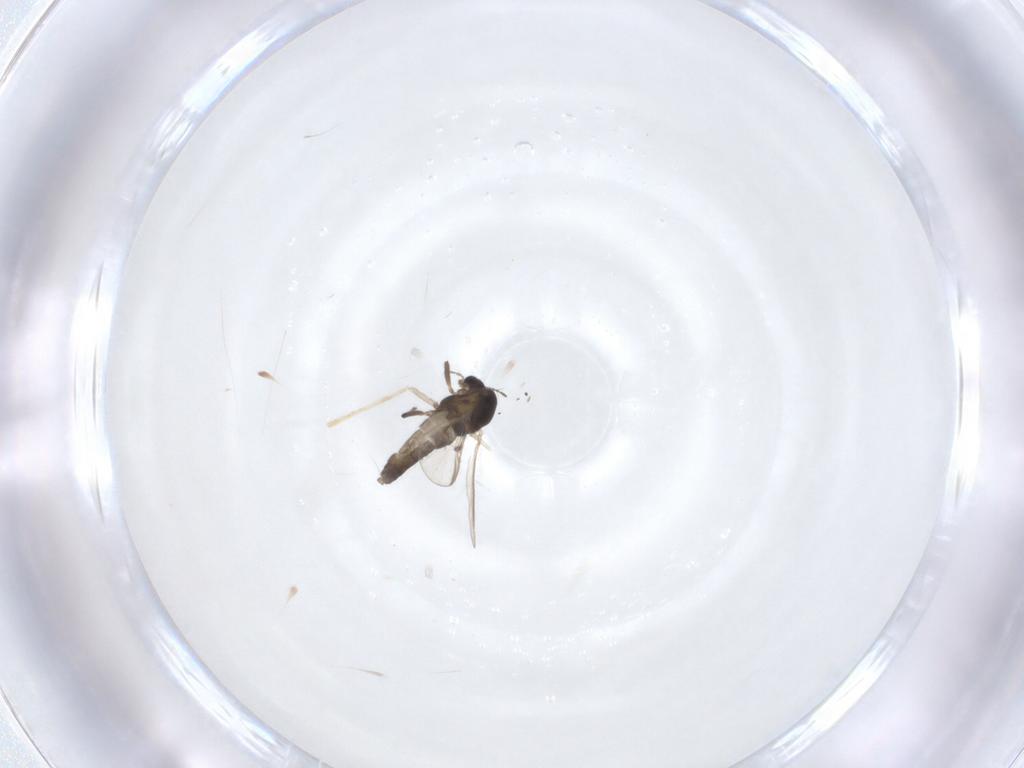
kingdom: Animalia
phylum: Arthropoda
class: Insecta
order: Diptera
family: Chironomidae
